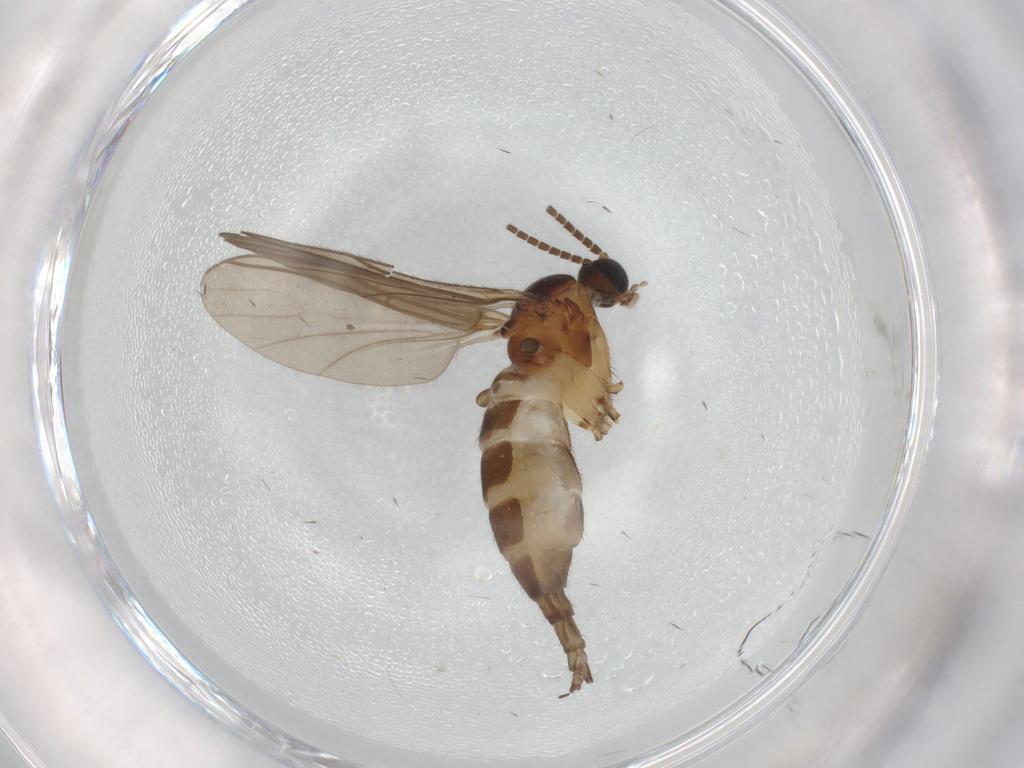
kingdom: Animalia
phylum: Arthropoda
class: Insecta
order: Diptera
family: Sciaridae
